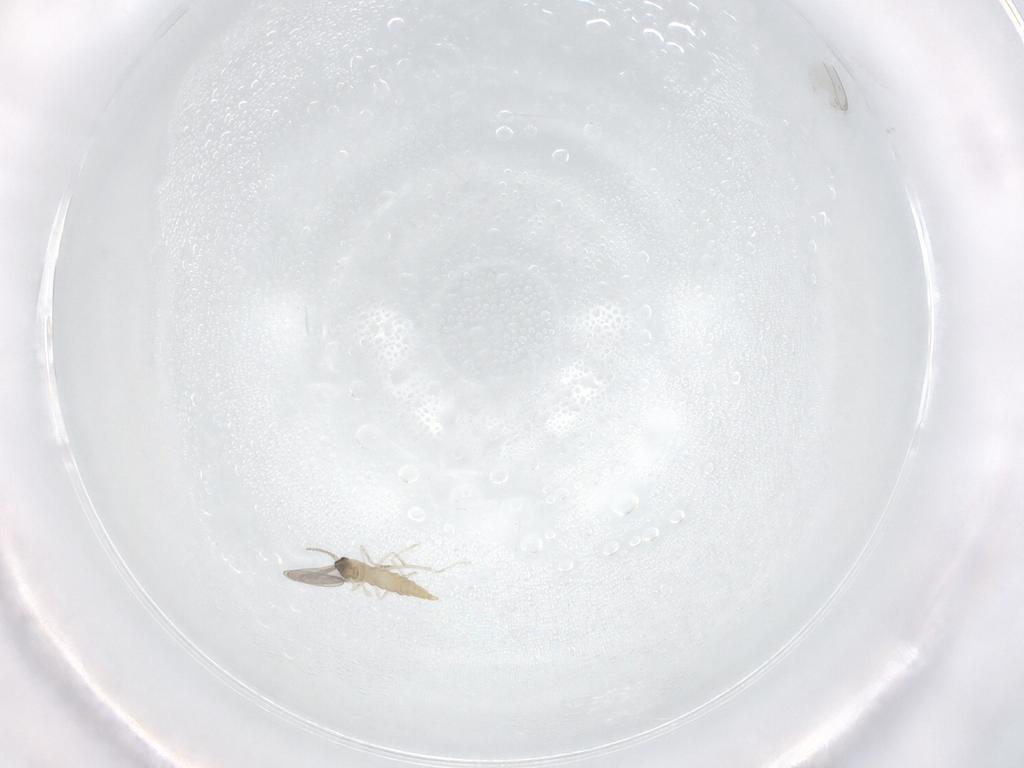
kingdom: Animalia
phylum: Arthropoda
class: Insecta
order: Diptera
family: Cecidomyiidae
